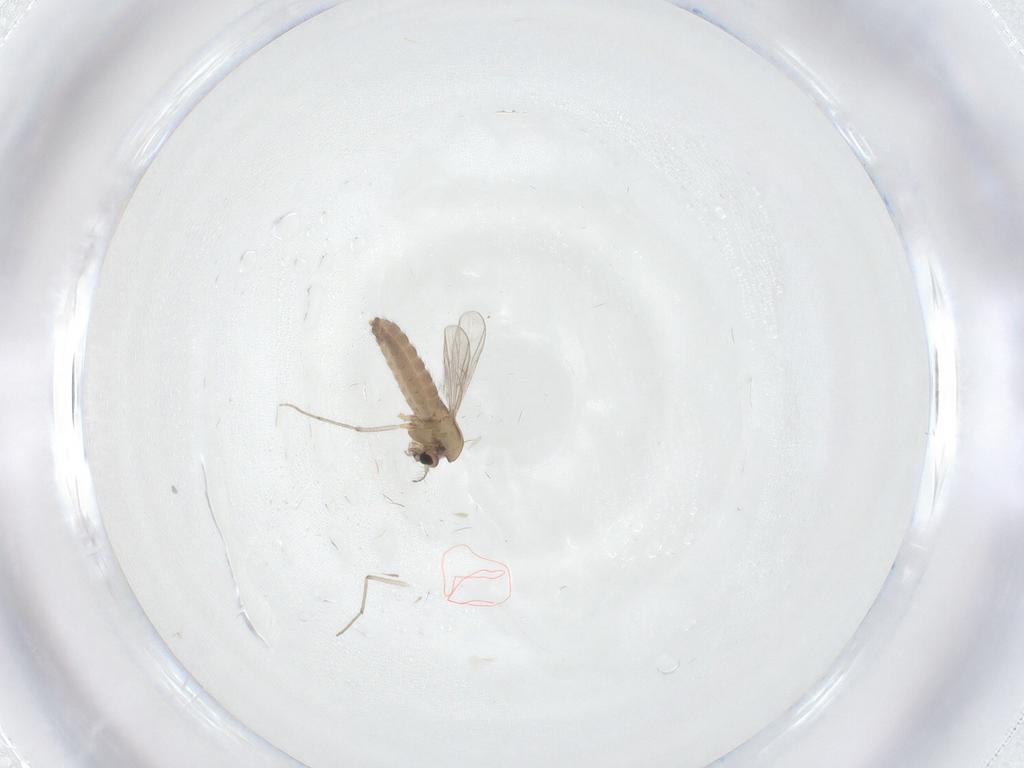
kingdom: Animalia
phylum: Arthropoda
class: Insecta
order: Diptera
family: Chironomidae
